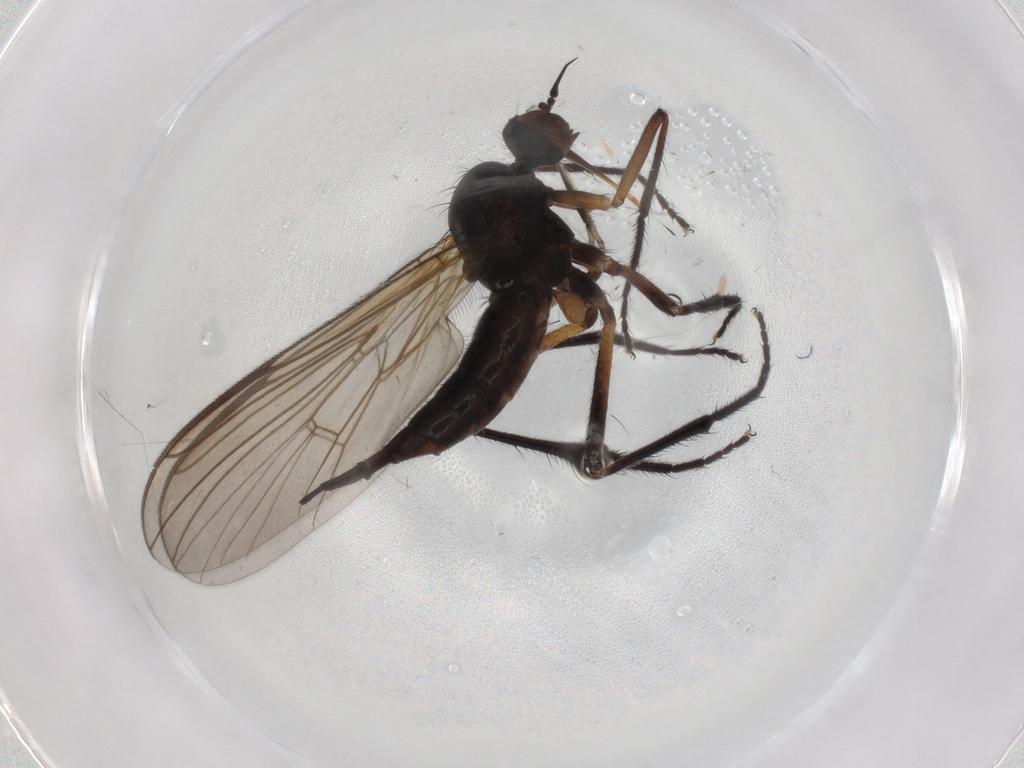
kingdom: Animalia
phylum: Arthropoda
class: Insecta
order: Diptera
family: Empididae
